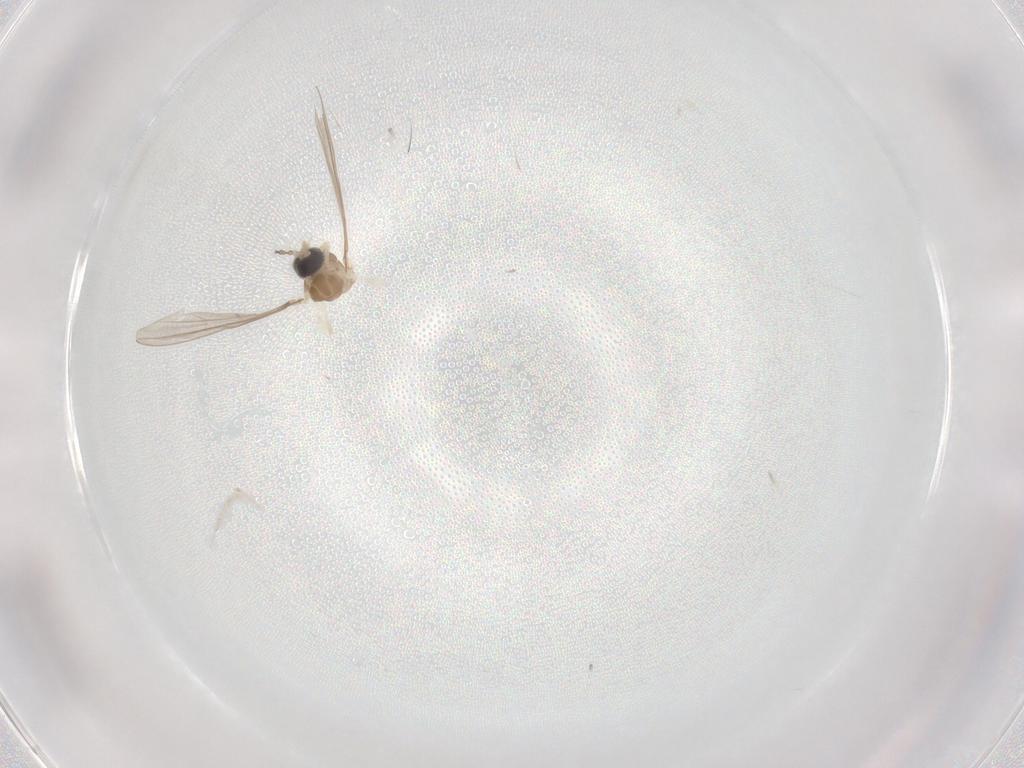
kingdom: Animalia
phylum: Arthropoda
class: Insecta
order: Diptera
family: Cecidomyiidae
